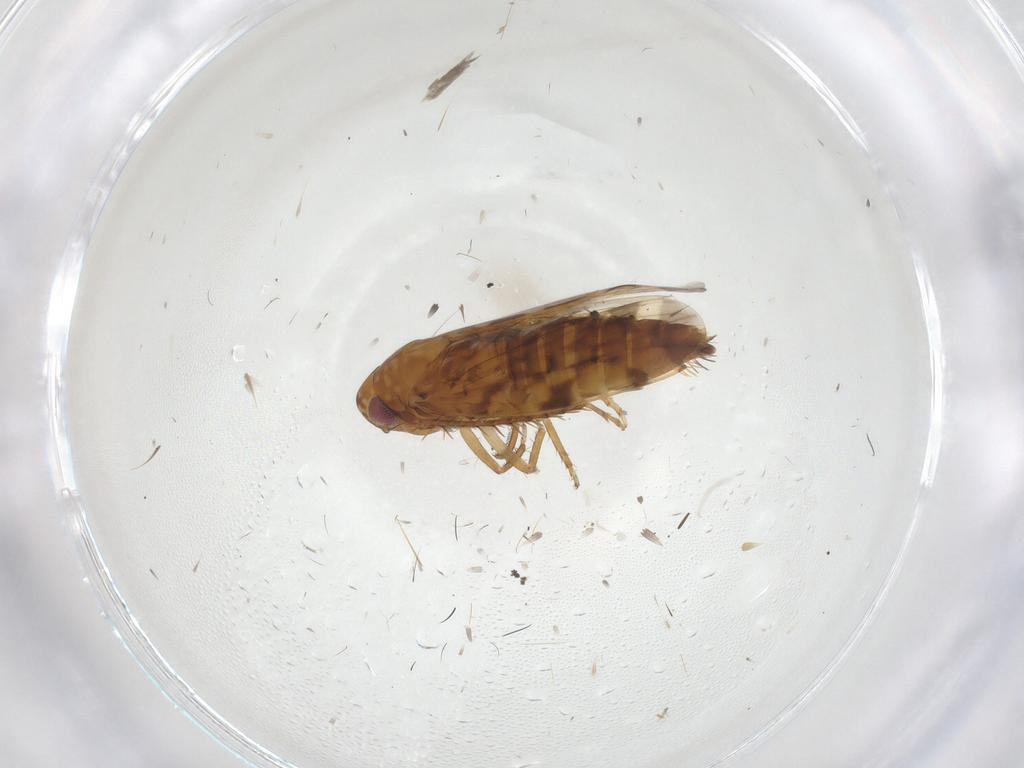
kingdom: Animalia
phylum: Arthropoda
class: Insecta
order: Hemiptera
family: Cicadellidae
